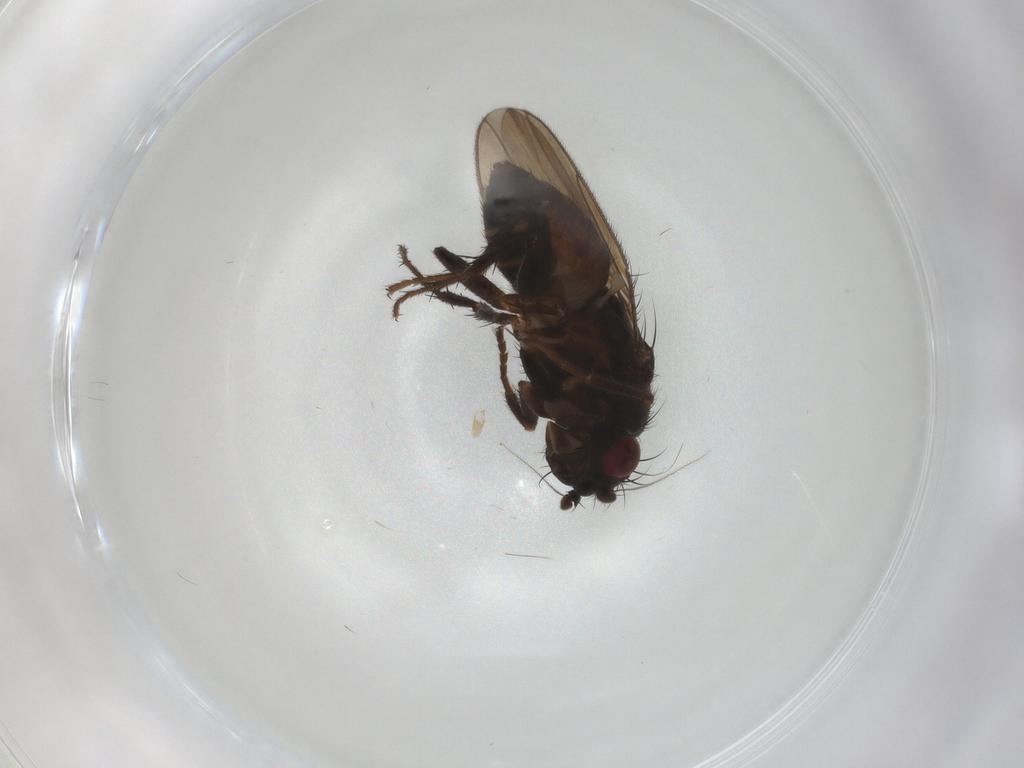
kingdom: Animalia
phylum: Arthropoda
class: Insecta
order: Diptera
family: Sphaeroceridae
